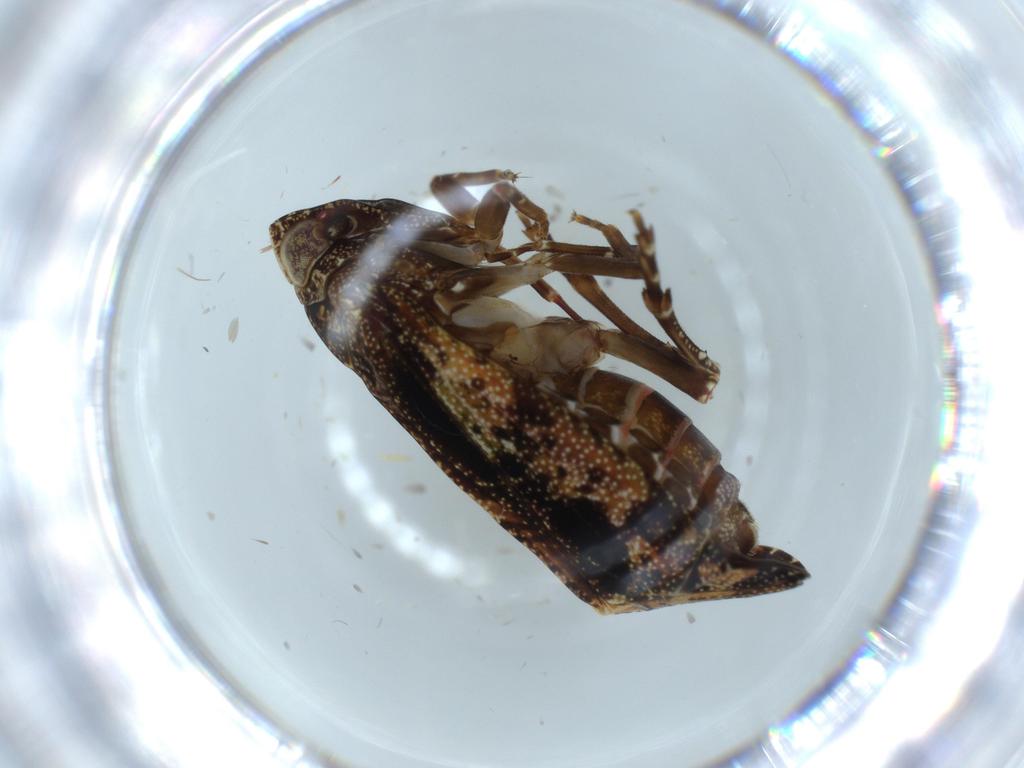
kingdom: Animalia
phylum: Arthropoda
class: Insecta
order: Hemiptera
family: Achilidae
